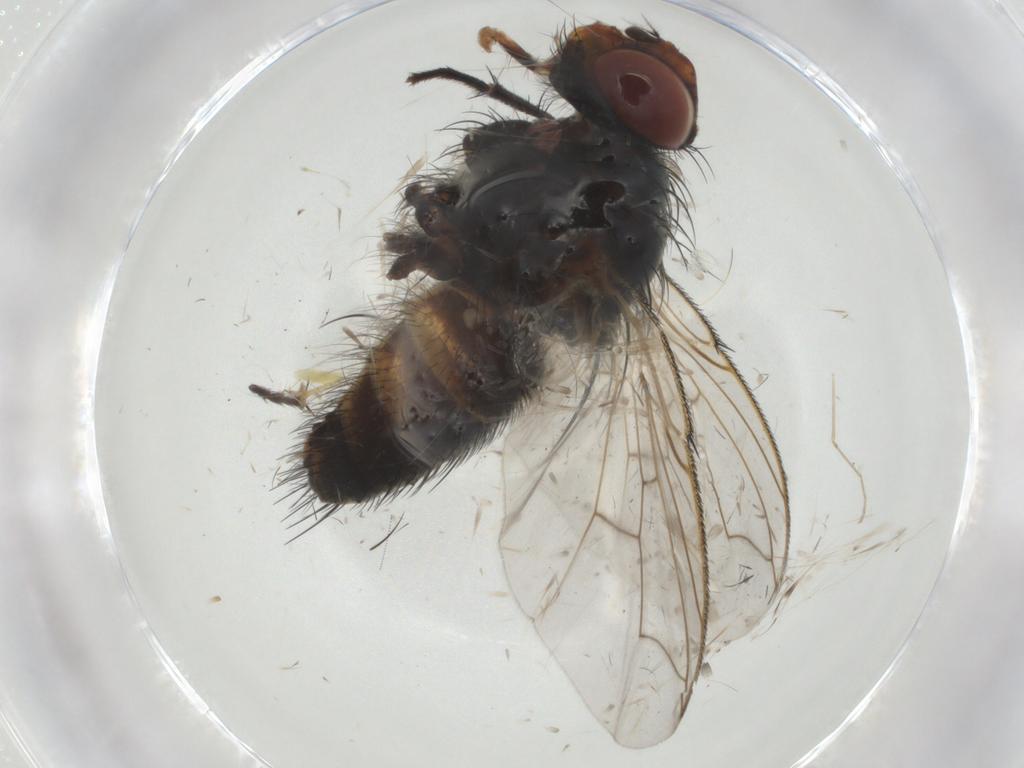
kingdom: Animalia
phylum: Arthropoda
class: Insecta
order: Diptera
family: Tachinidae
